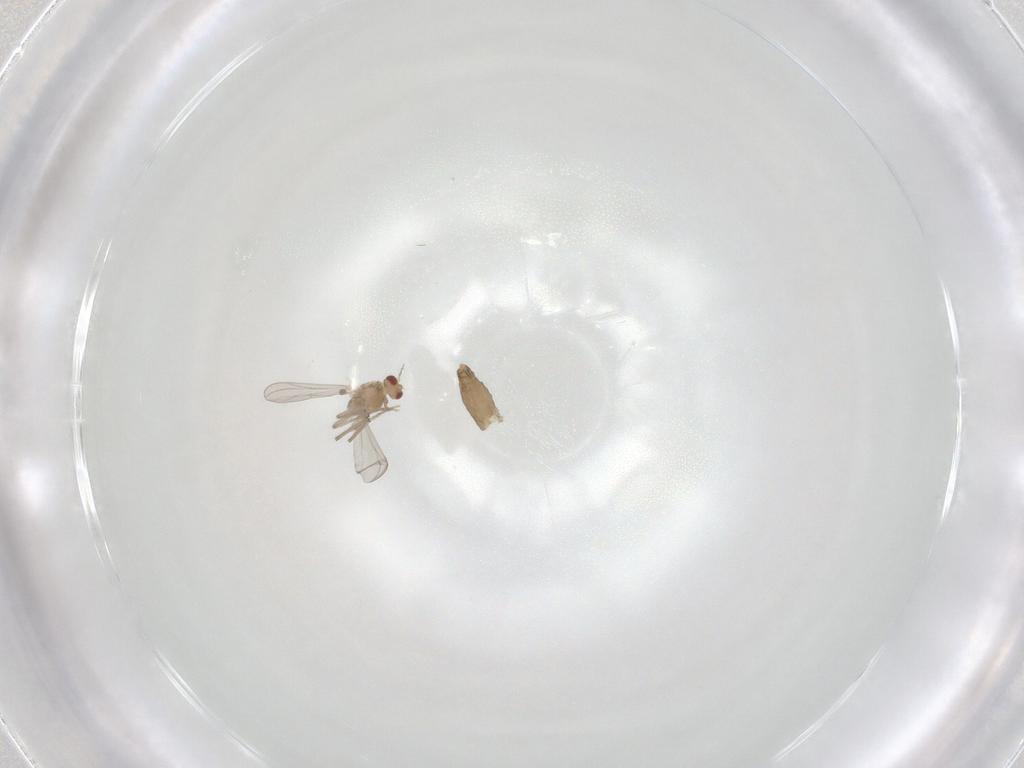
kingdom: Animalia
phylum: Arthropoda
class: Insecta
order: Diptera
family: Chironomidae
